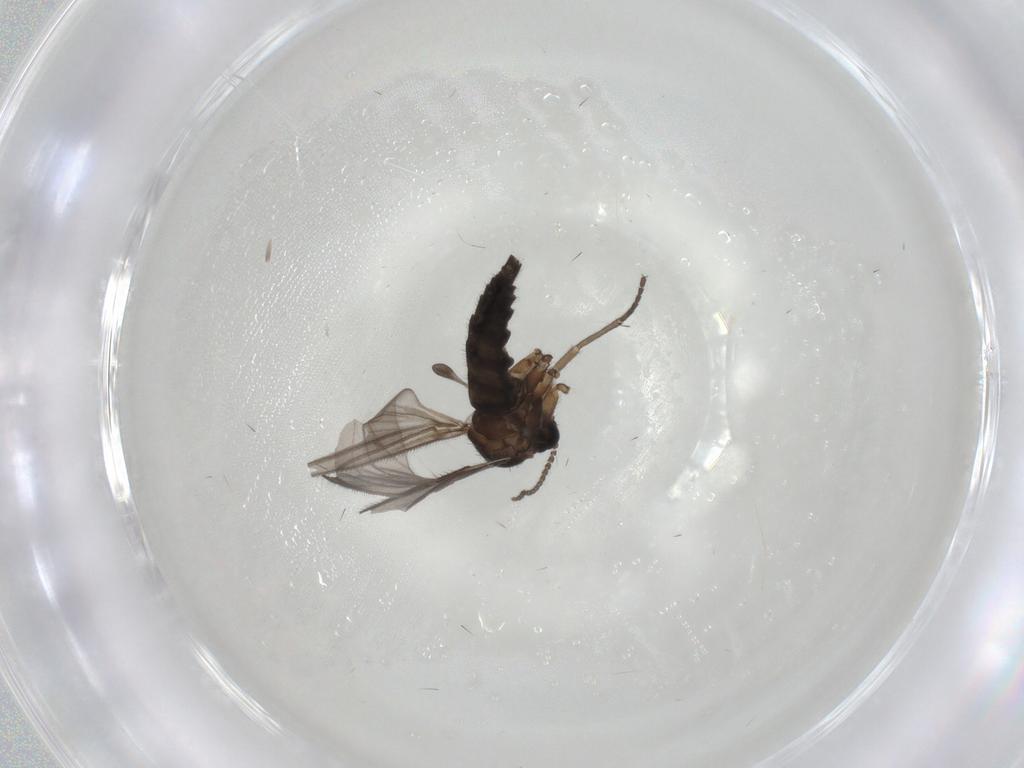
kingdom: Animalia
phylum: Arthropoda
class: Insecta
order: Diptera
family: Sciaridae
